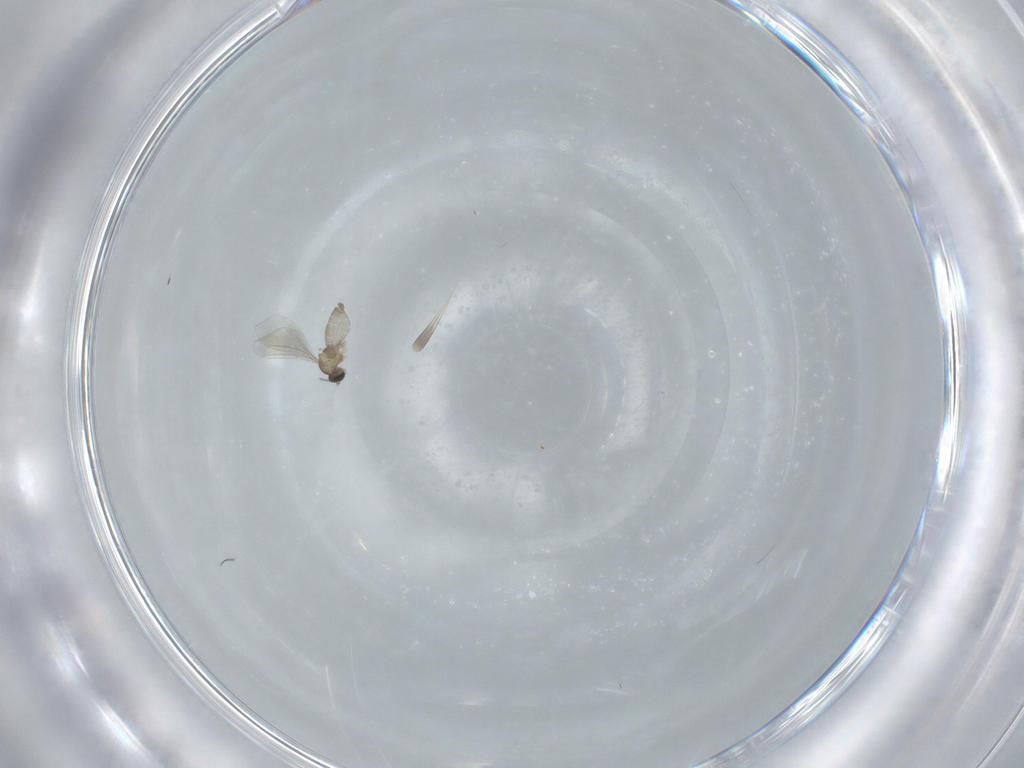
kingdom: Animalia
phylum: Arthropoda
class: Insecta
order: Diptera
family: Cecidomyiidae
